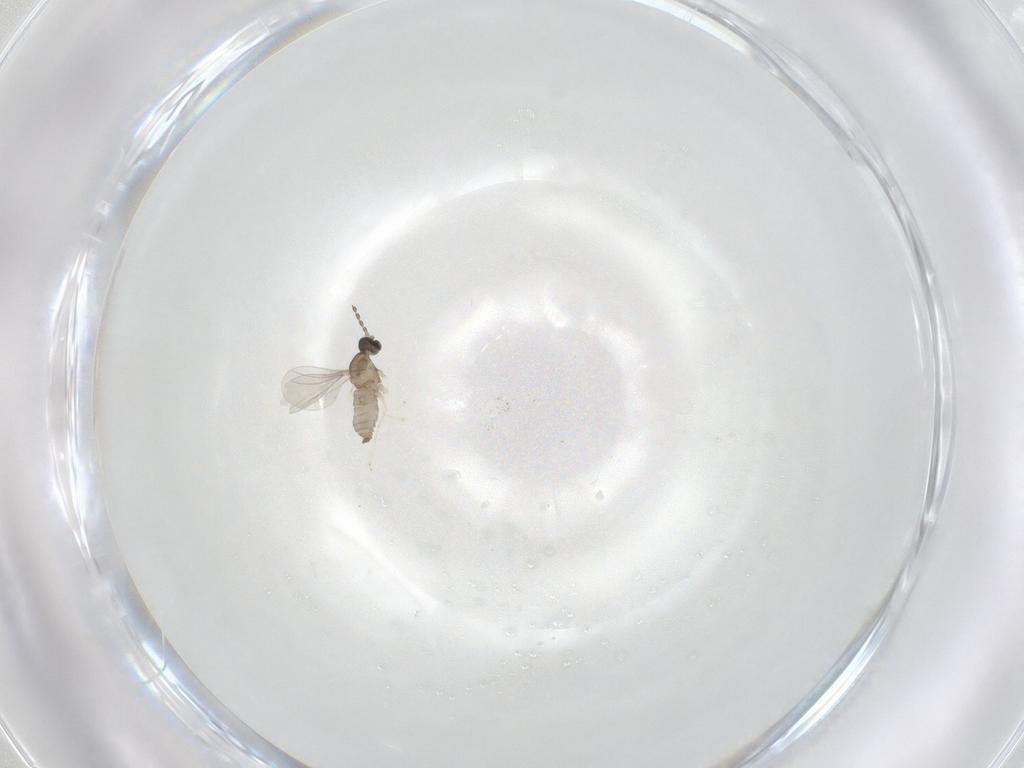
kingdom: Animalia
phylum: Arthropoda
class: Insecta
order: Diptera
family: Cecidomyiidae
